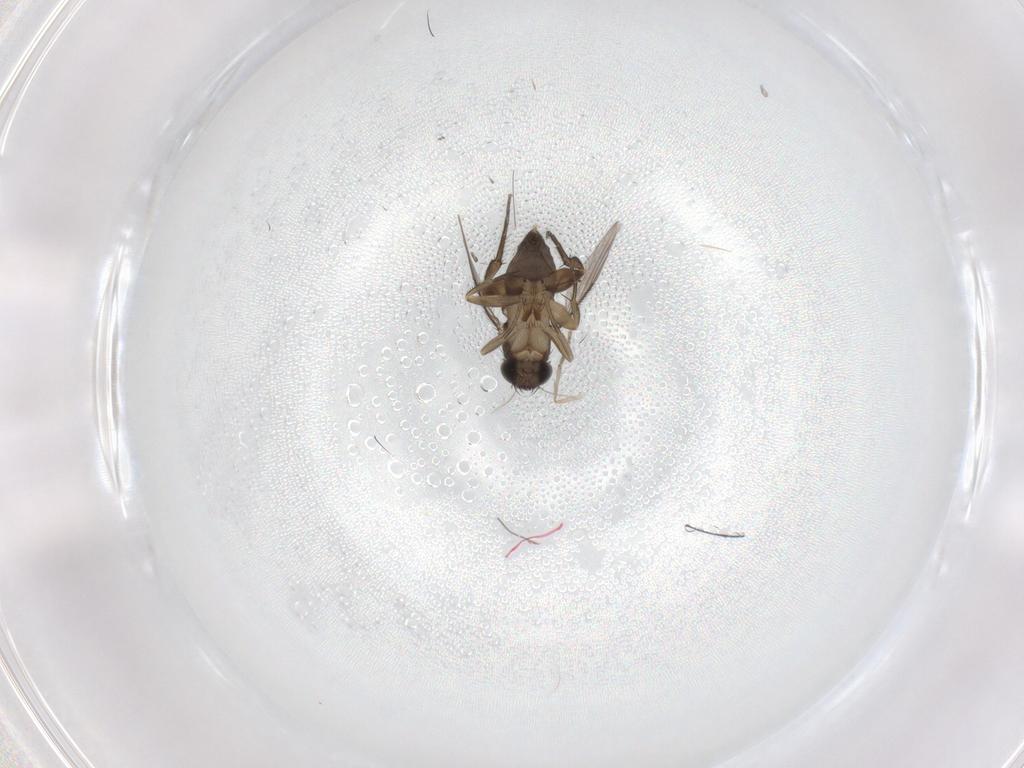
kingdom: Animalia
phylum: Arthropoda
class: Insecta
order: Diptera
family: Phoridae
